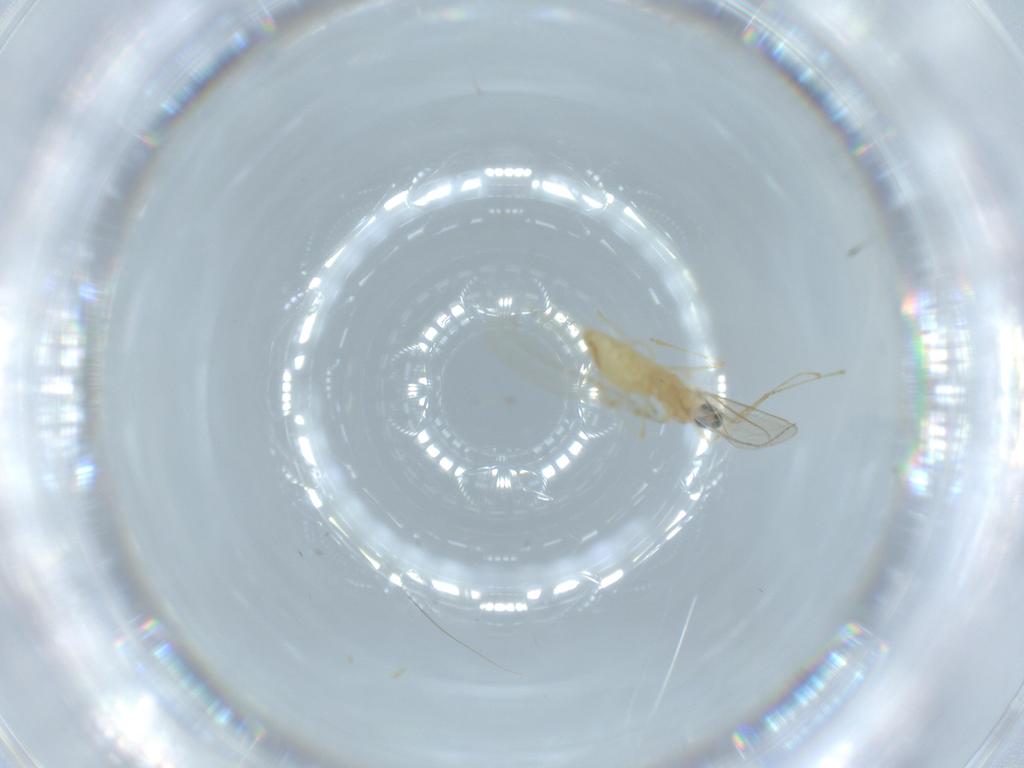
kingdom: Animalia
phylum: Arthropoda
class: Insecta
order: Diptera
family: Cecidomyiidae
